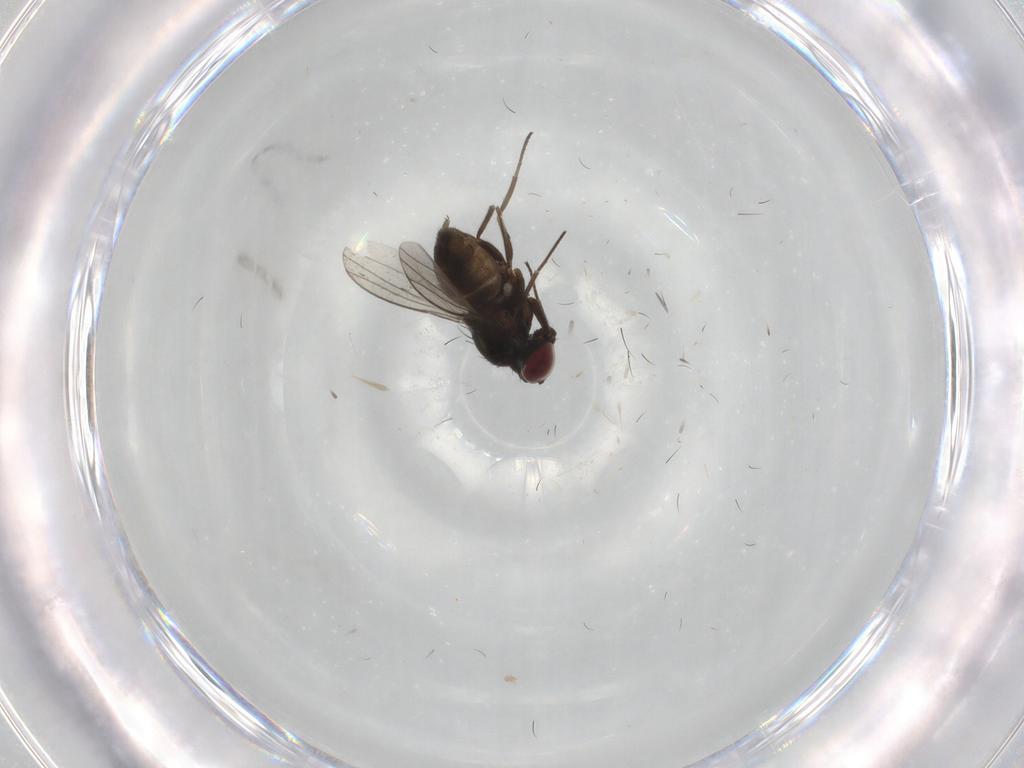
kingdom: Animalia
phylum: Arthropoda
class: Insecta
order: Diptera
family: Dolichopodidae
